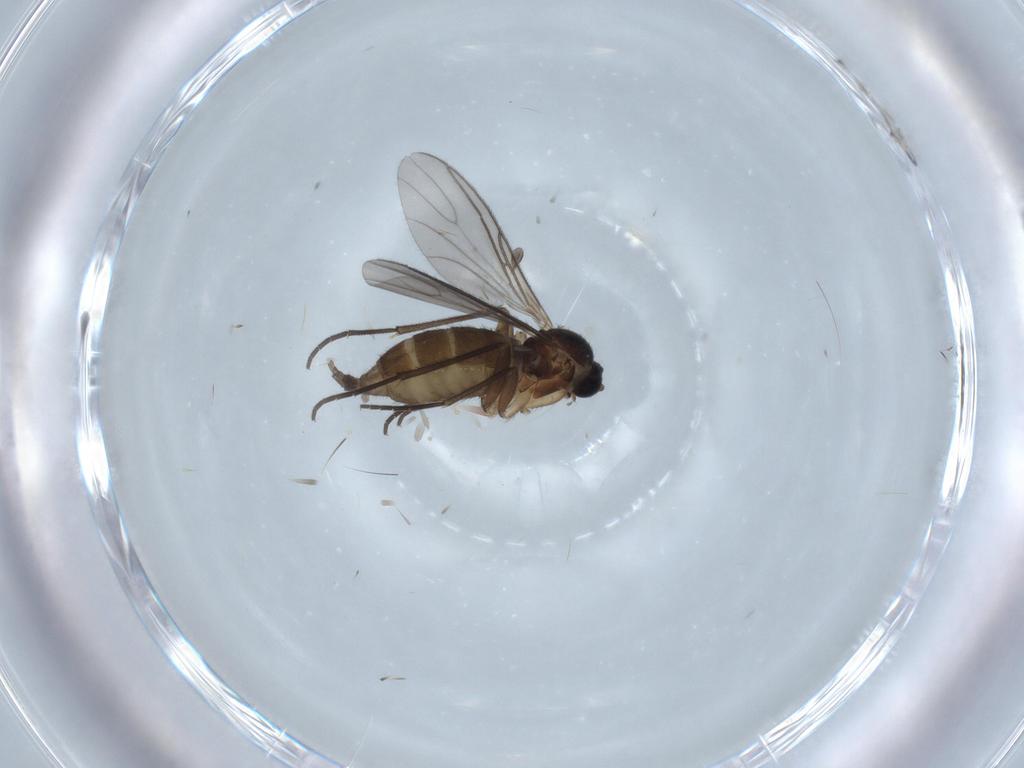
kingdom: Animalia
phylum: Arthropoda
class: Insecta
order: Diptera
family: Sciaridae
